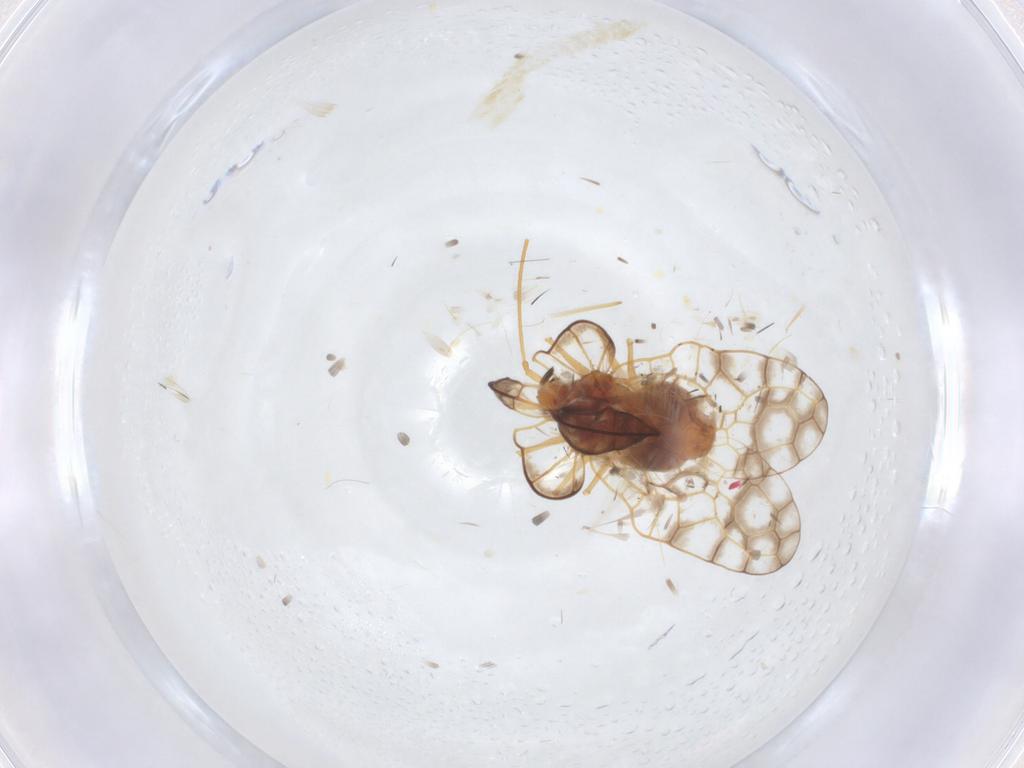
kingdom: Animalia
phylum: Arthropoda
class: Insecta
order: Hemiptera
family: Tingidae
